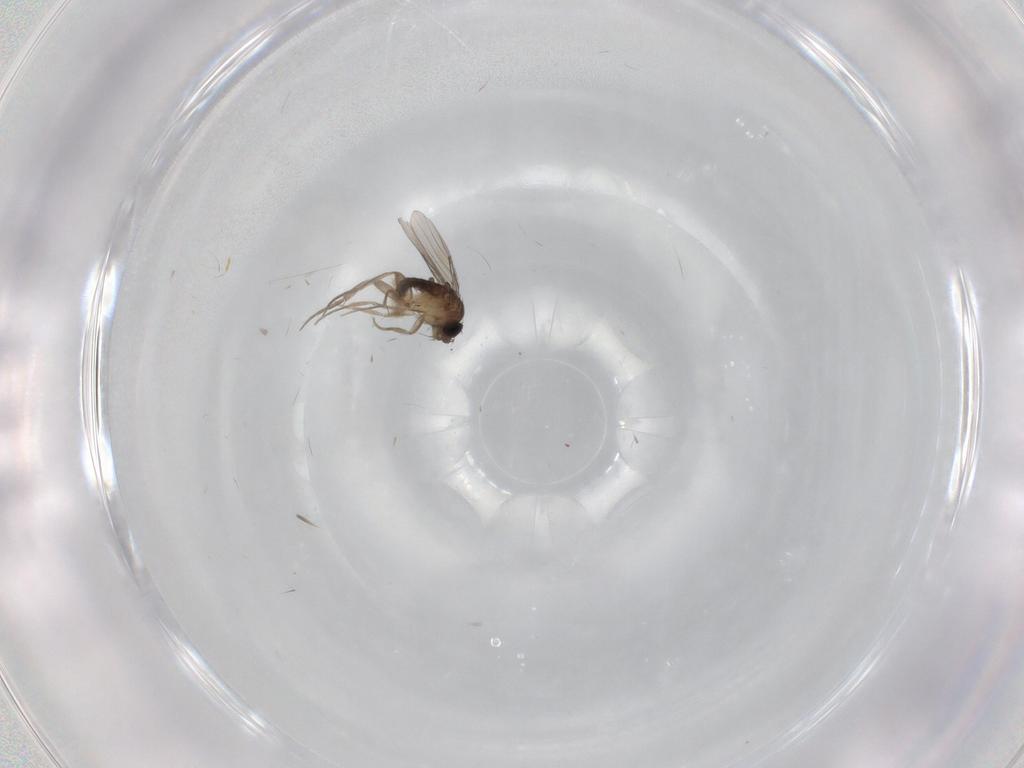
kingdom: Animalia
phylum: Arthropoda
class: Insecta
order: Diptera
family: Phoridae
